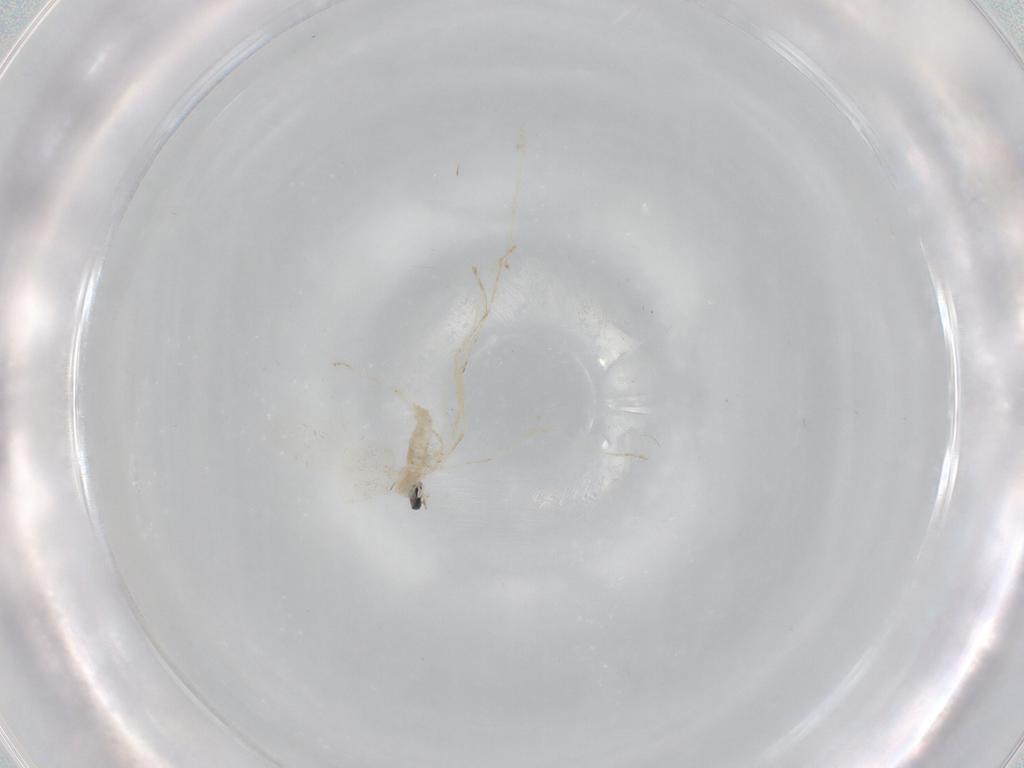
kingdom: Animalia
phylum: Arthropoda
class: Insecta
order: Diptera
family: Cecidomyiidae
